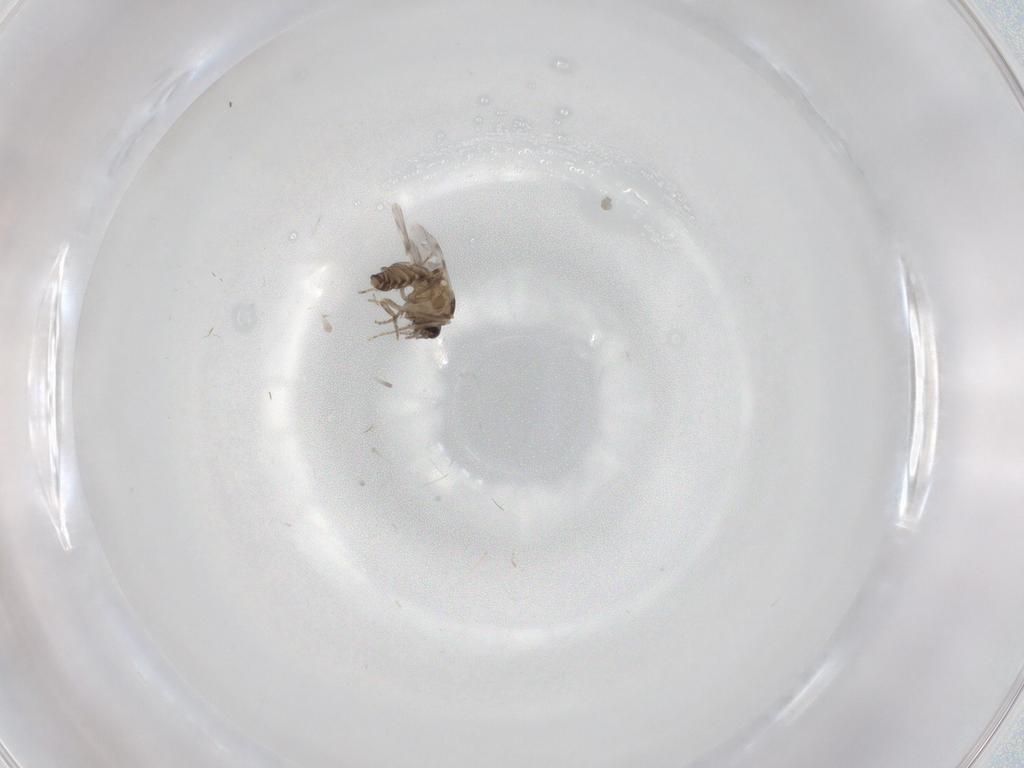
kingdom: Animalia
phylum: Arthropoda
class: Insecta
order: Diptera
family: Ceratopogonidae
